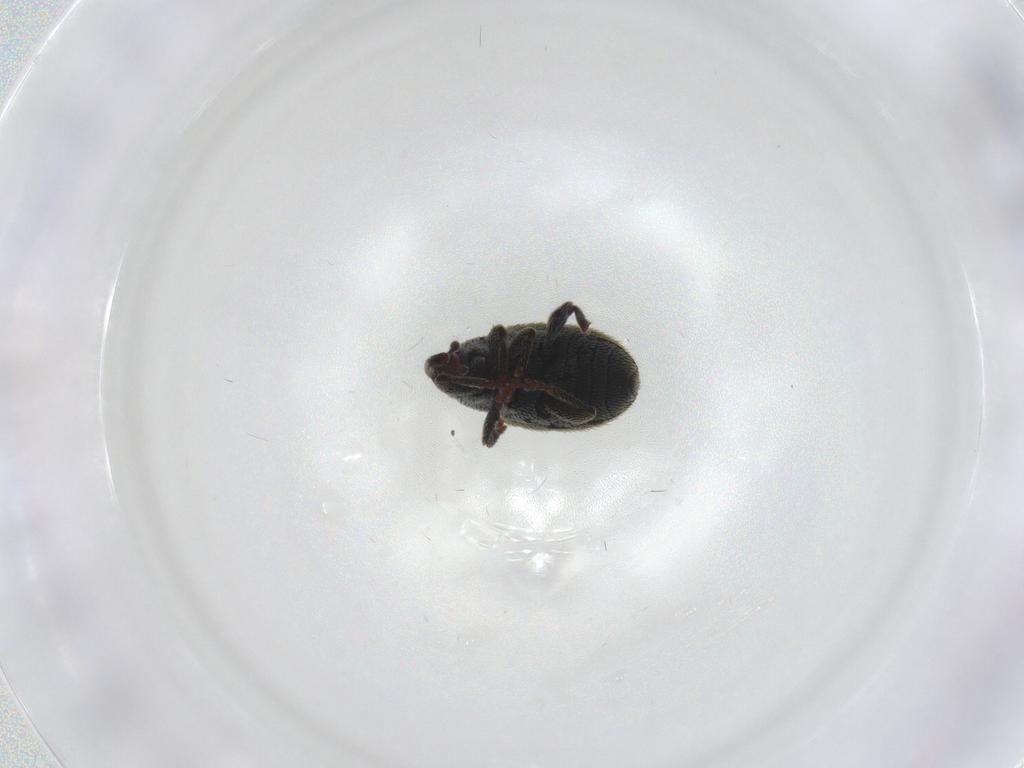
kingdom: Animalia
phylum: Arthropoda
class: Insecta
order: Coleoptera
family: Curculionidae
